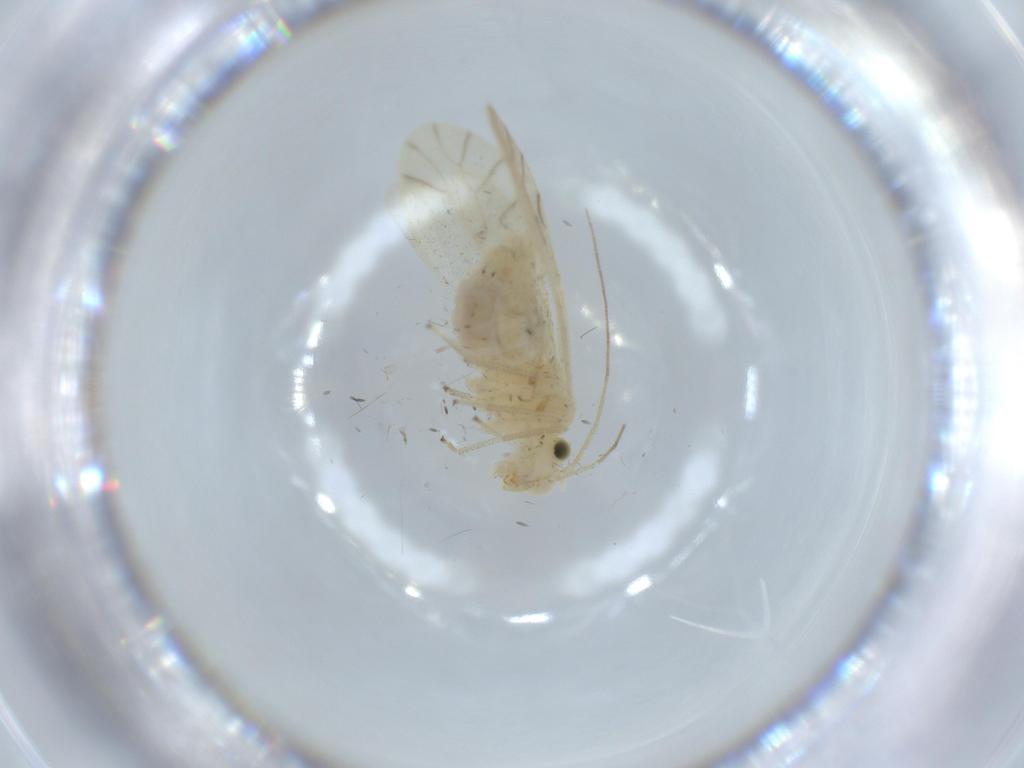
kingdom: Animalia
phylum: Arthropoda
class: Insecta
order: Psocodea
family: Caeciliusidae
